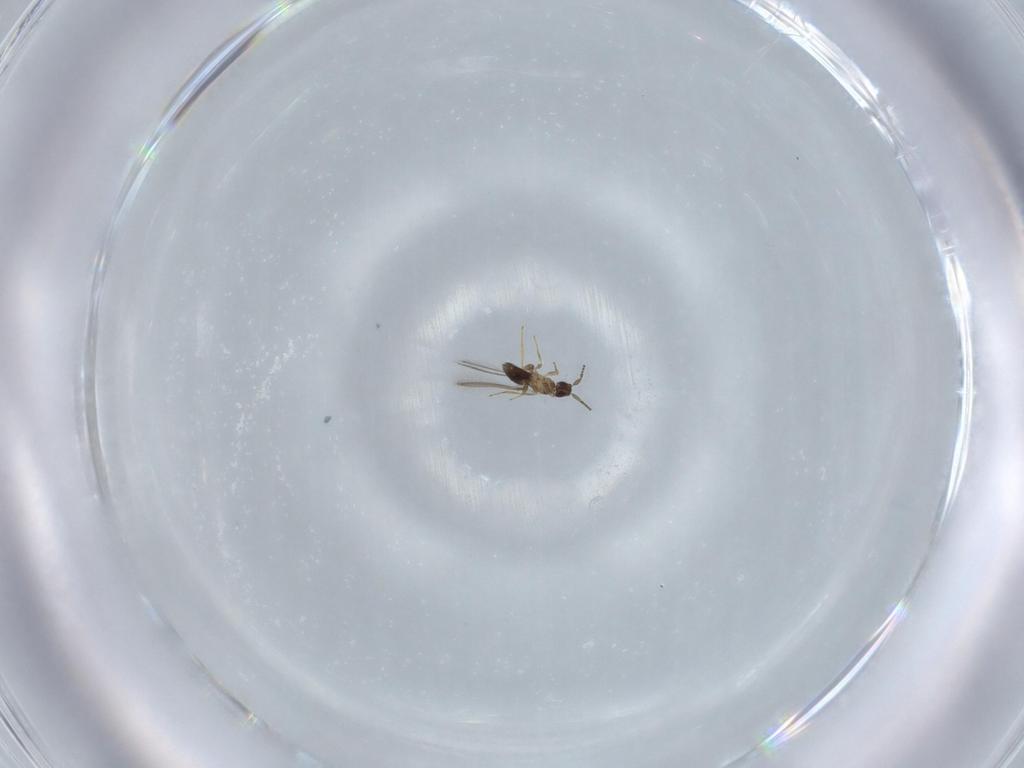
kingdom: Animalia
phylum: Arthropoda
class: Insecta
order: Hymenoptera
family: Mymaridae
